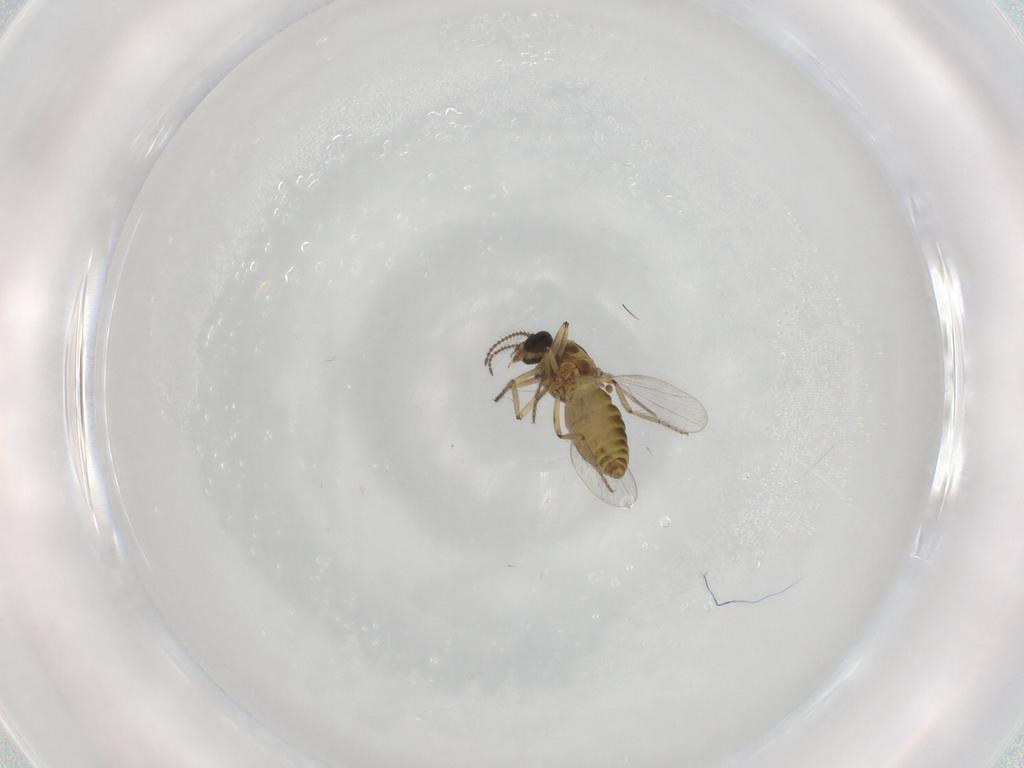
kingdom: Animalia
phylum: Arthropoda
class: Insecta
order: Diptera
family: Ceratopogonidae
